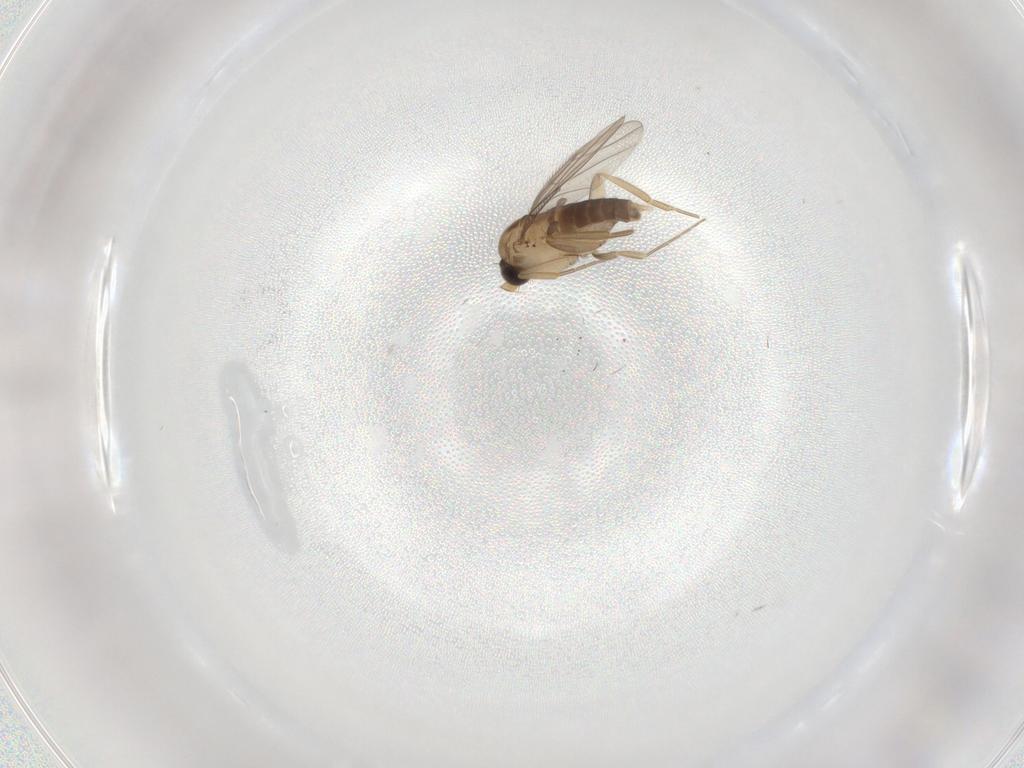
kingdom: Animalia
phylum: Arthropoda
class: Insecta
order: Diptera
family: Phoridae
